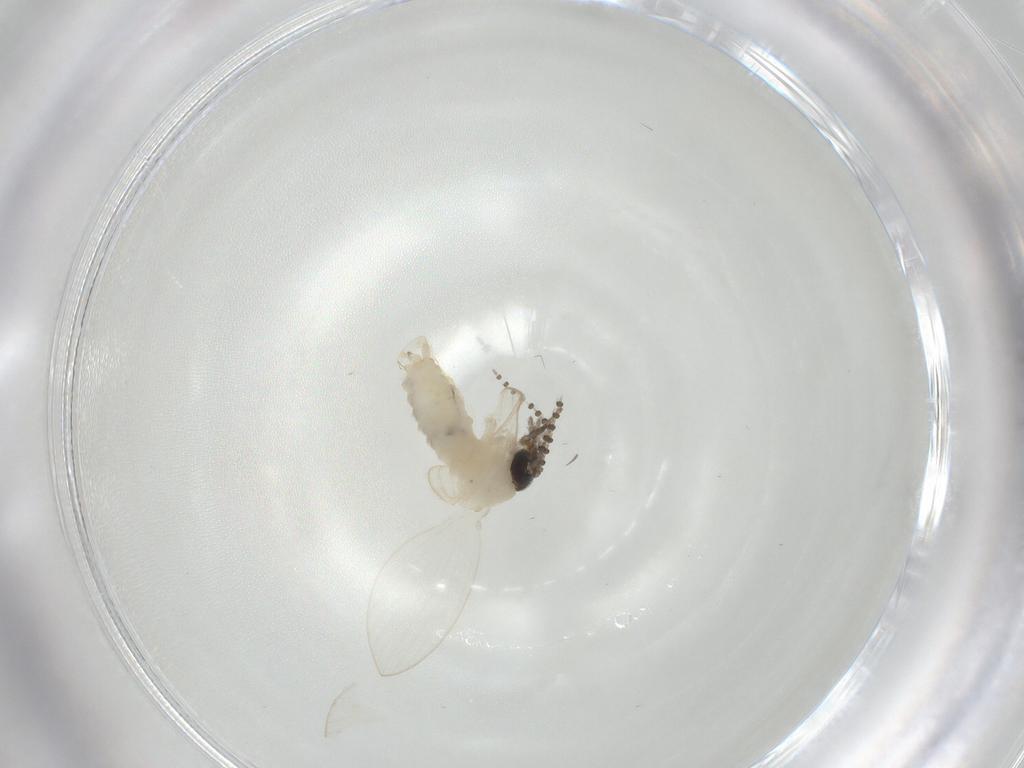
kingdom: Animalia
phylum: Arthropoda
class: Insecta
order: Diptera
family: Psychodidae
